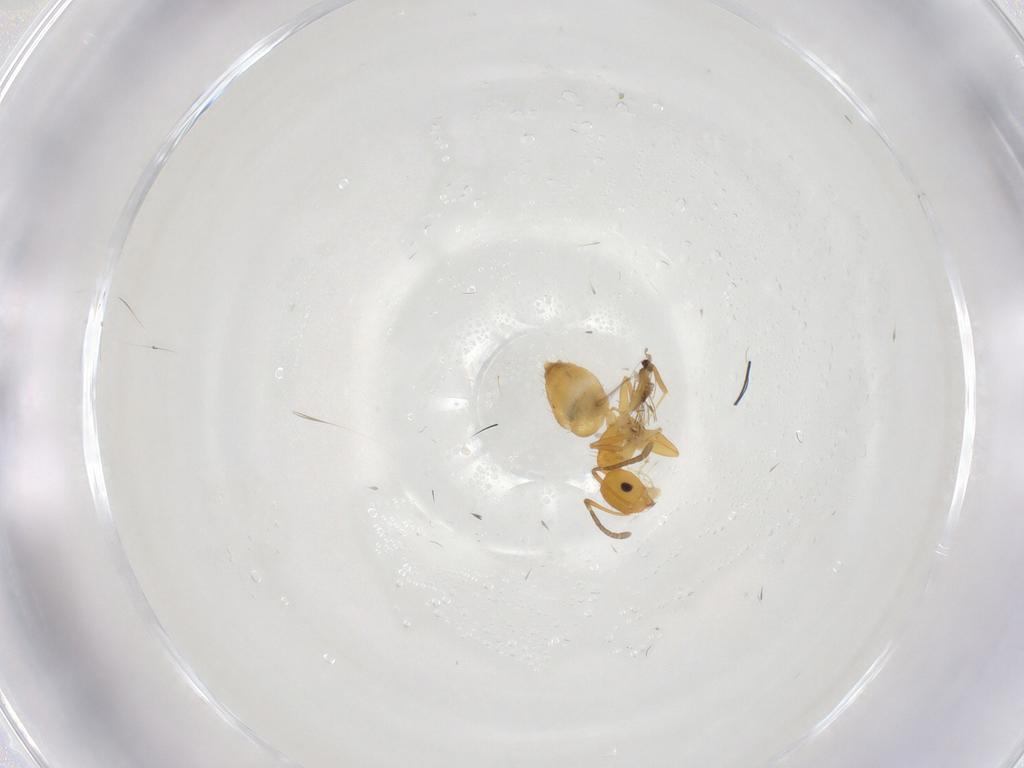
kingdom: Animalia
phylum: Arthropoda
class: Insecta
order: Hymenoptera
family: Formicidae
